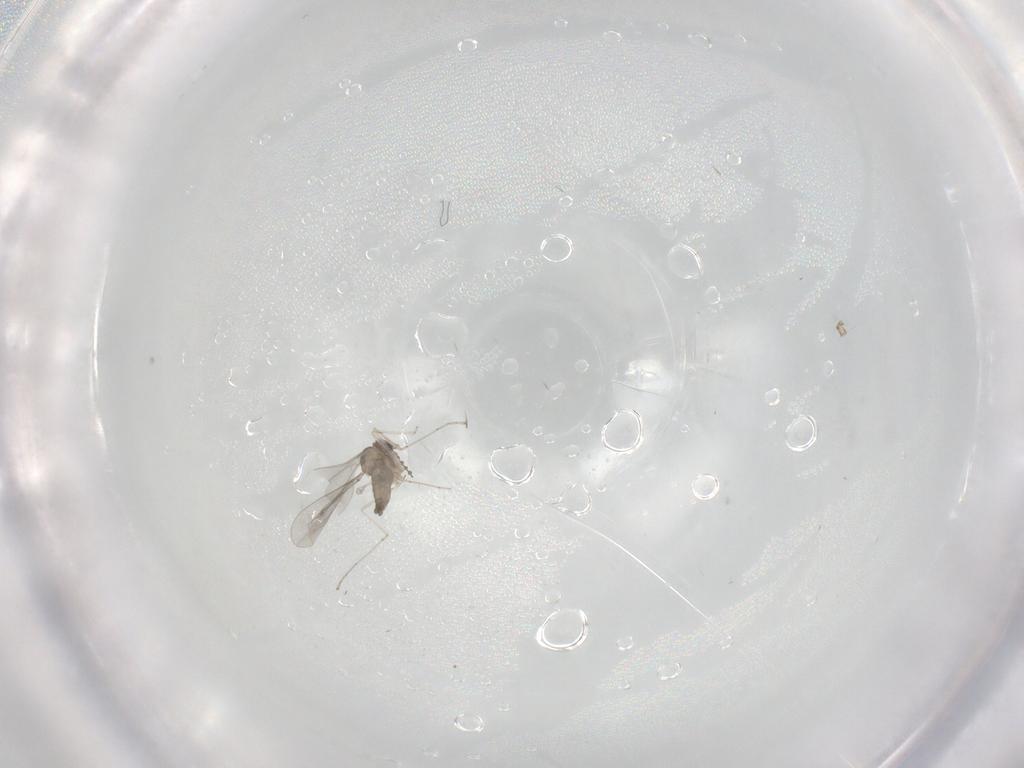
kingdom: Animalia
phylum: Arthropoda
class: Insecta
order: Diptera
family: Cecidomyiidae
